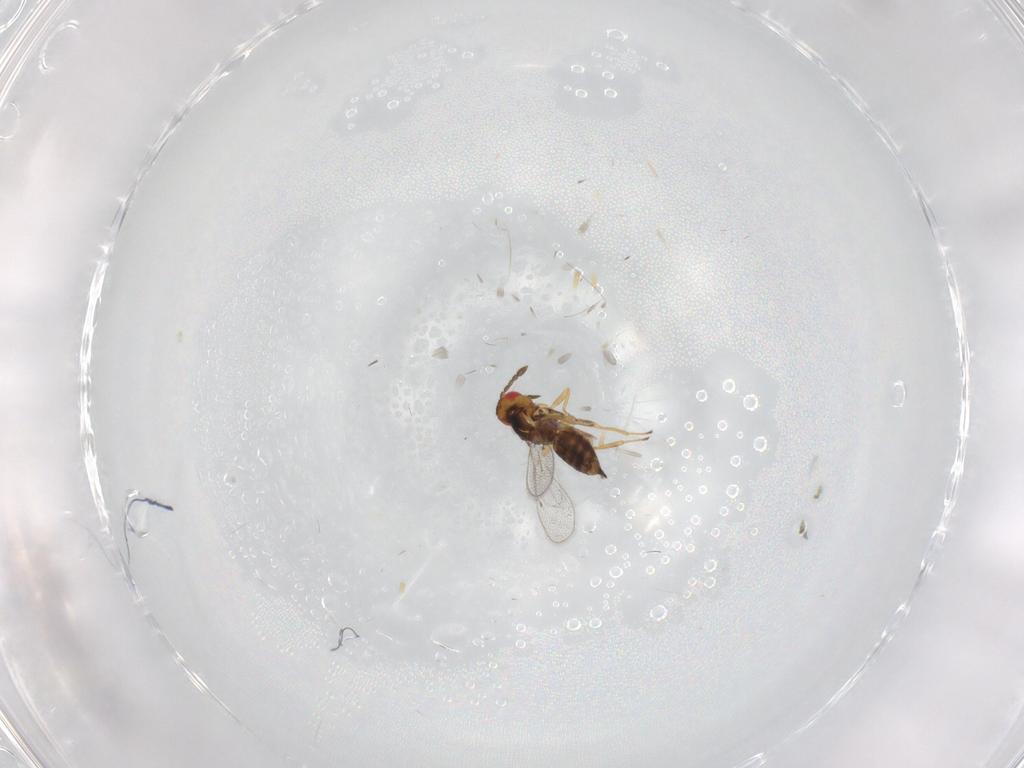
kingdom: Animalia
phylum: Arthropoda
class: Insecta
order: Hymenoptera
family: Eulophidae
